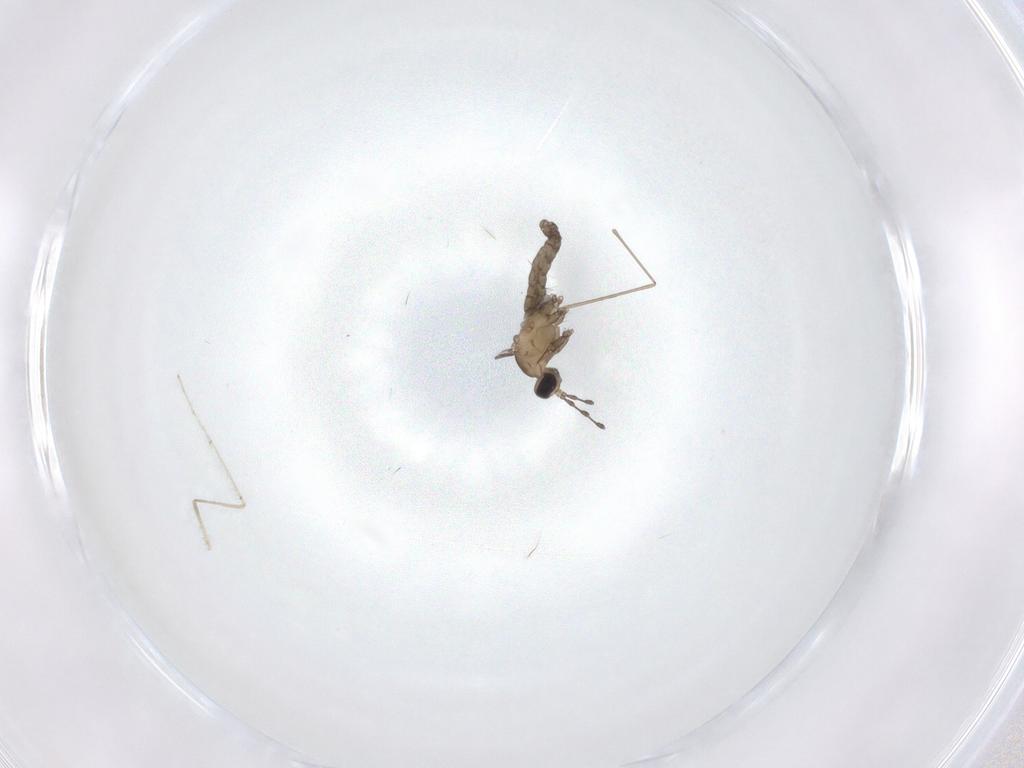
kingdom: Animalia
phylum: Arthropoda
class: Insecta
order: Diptera
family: Cecidomyiidae
